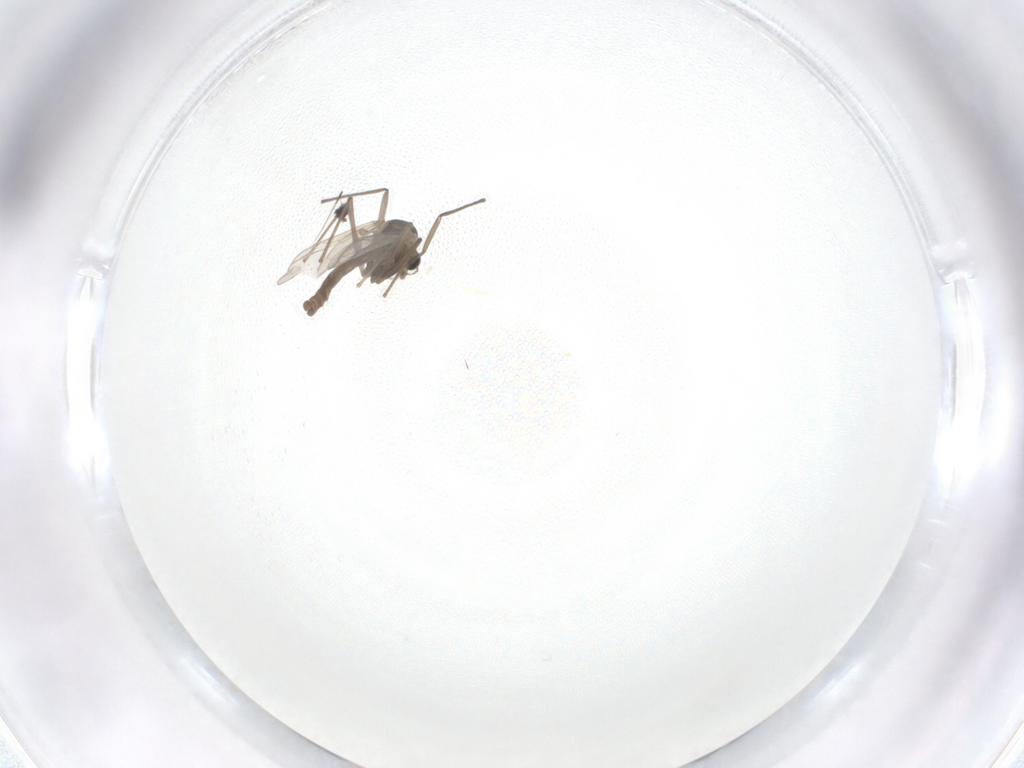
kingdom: Animalia
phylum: Arthropoda
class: Insecta
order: Diptera
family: Chironomidae
